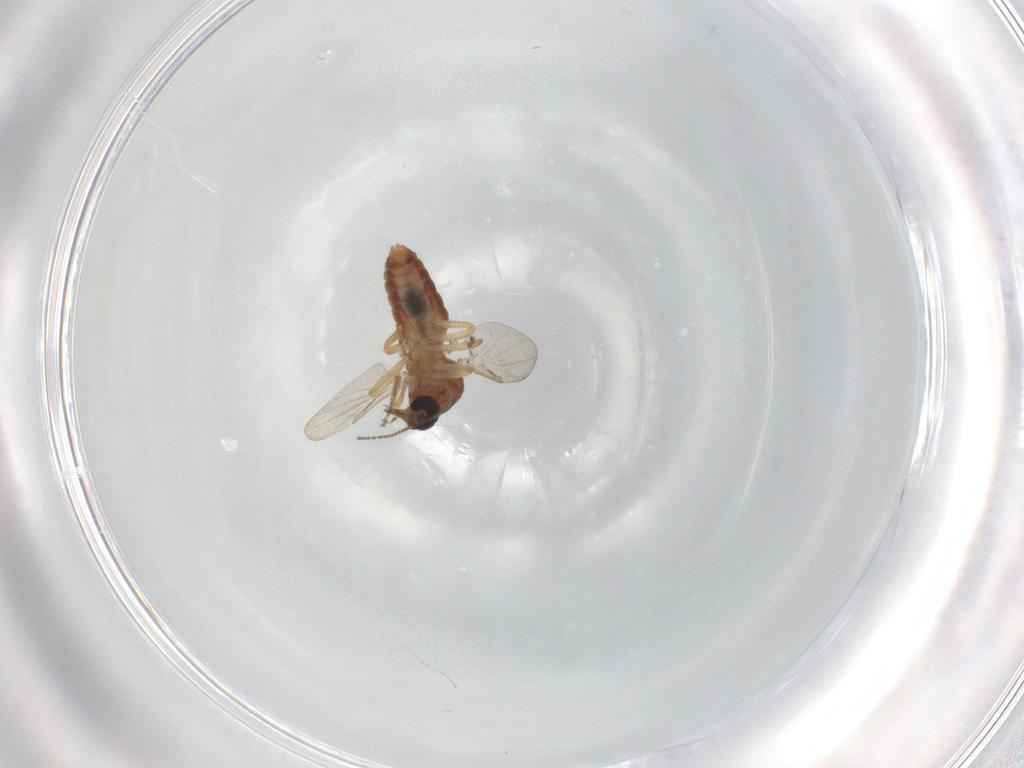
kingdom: Animalia
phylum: Arthropoda
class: Insecta
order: Diptera
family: Ceratopogonidae
